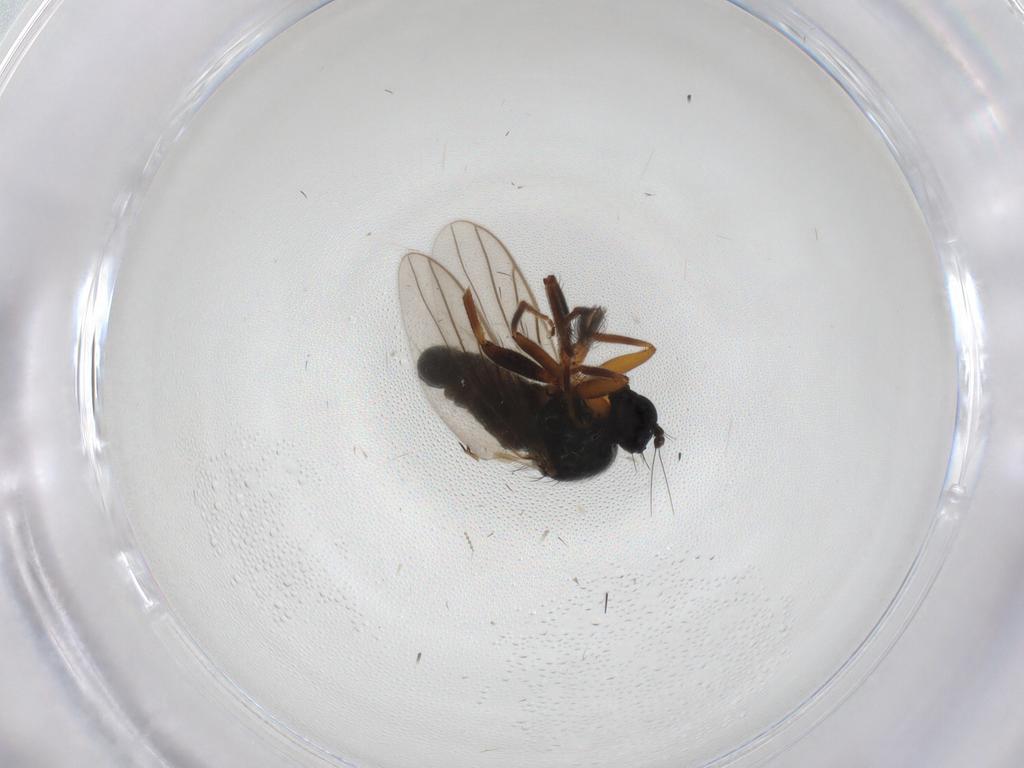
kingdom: Animalia
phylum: Arthropoda
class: Insecta
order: Diptera
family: Ceratopogonidae
